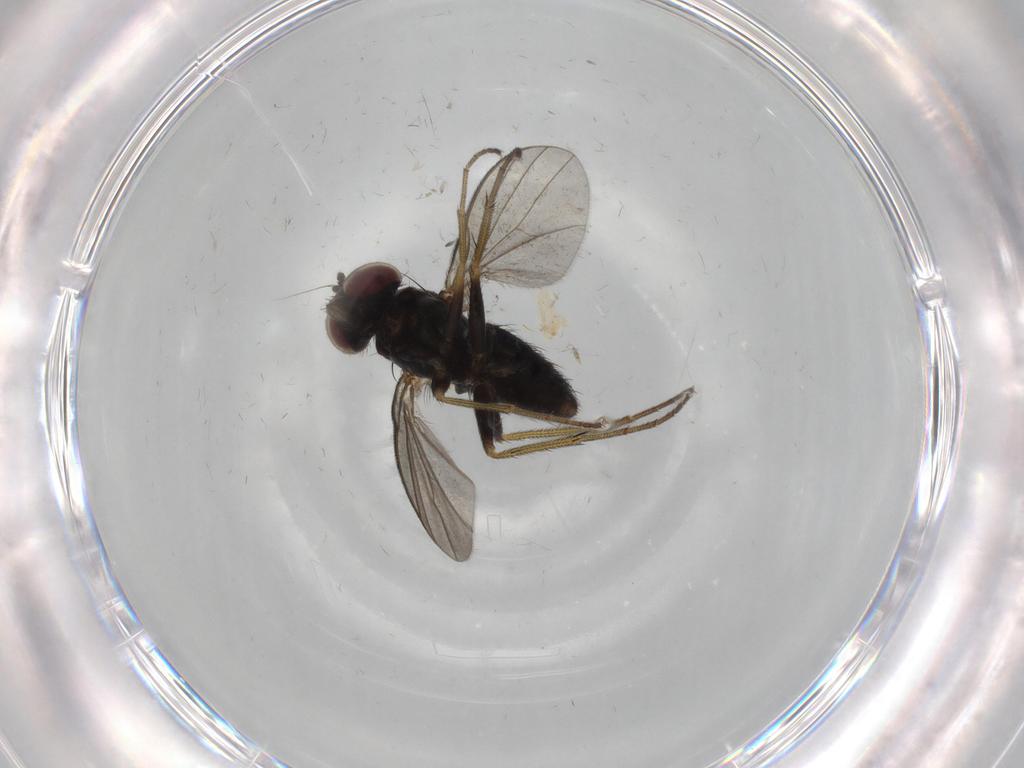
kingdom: Animalia
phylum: Arthropoda
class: Insecta
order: Diptera
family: Dolichopodidae
